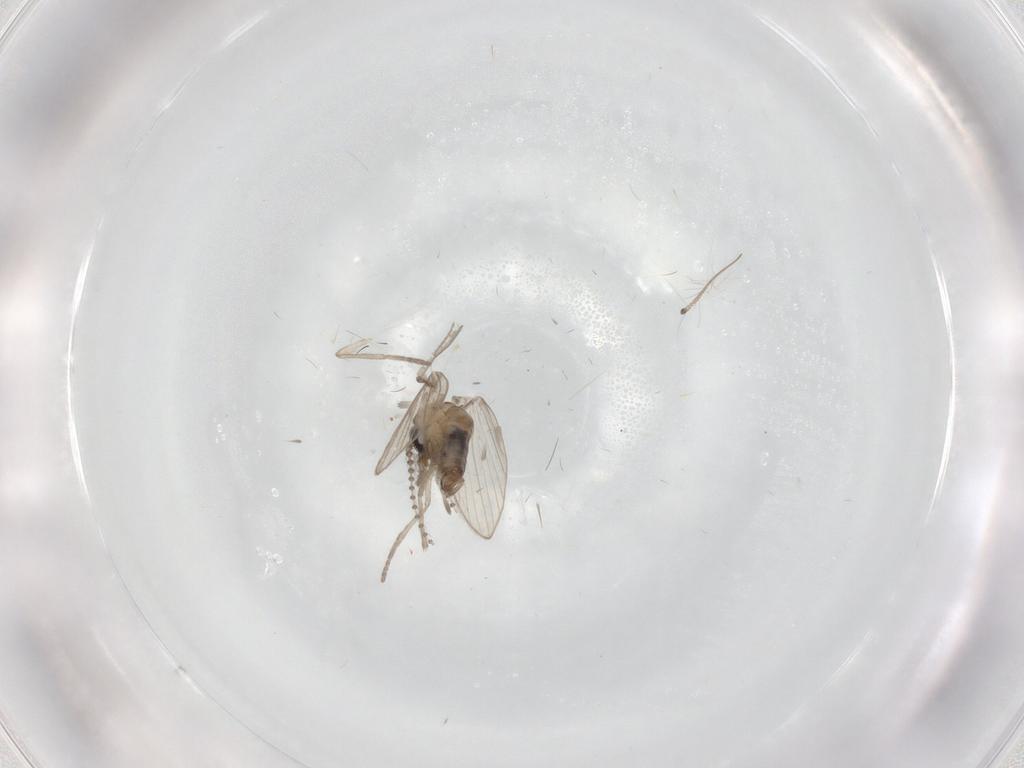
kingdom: Animalia
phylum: Arthropoda
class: Insecta
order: Diptera
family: Psychodidae
